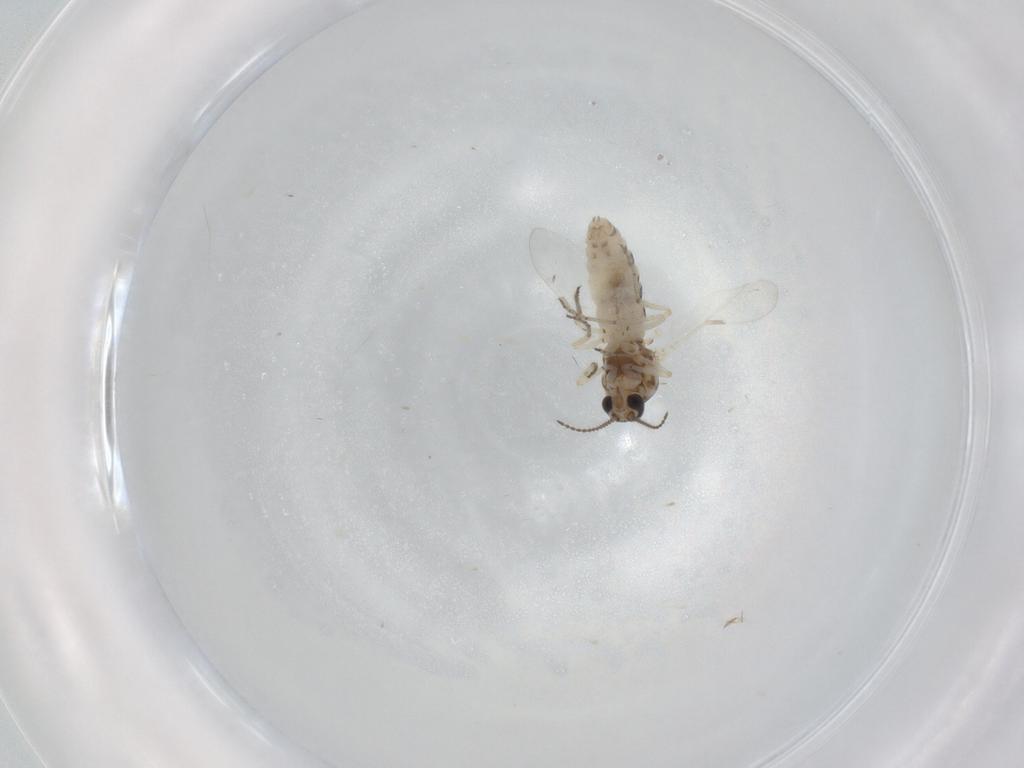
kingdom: Animalia
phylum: Arthropoda
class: Insecta
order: Diptera
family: Ceratopogonidae
